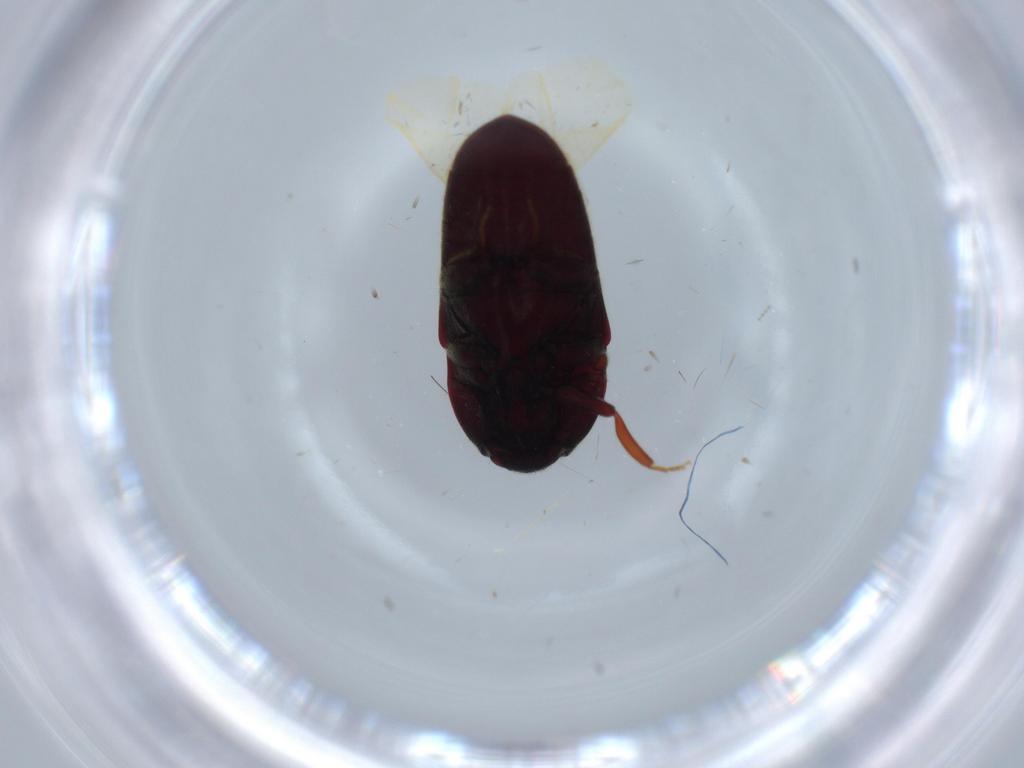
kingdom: Animalia
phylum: Arthropoda
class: Insecta
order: Coleoptera
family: Throscidae
